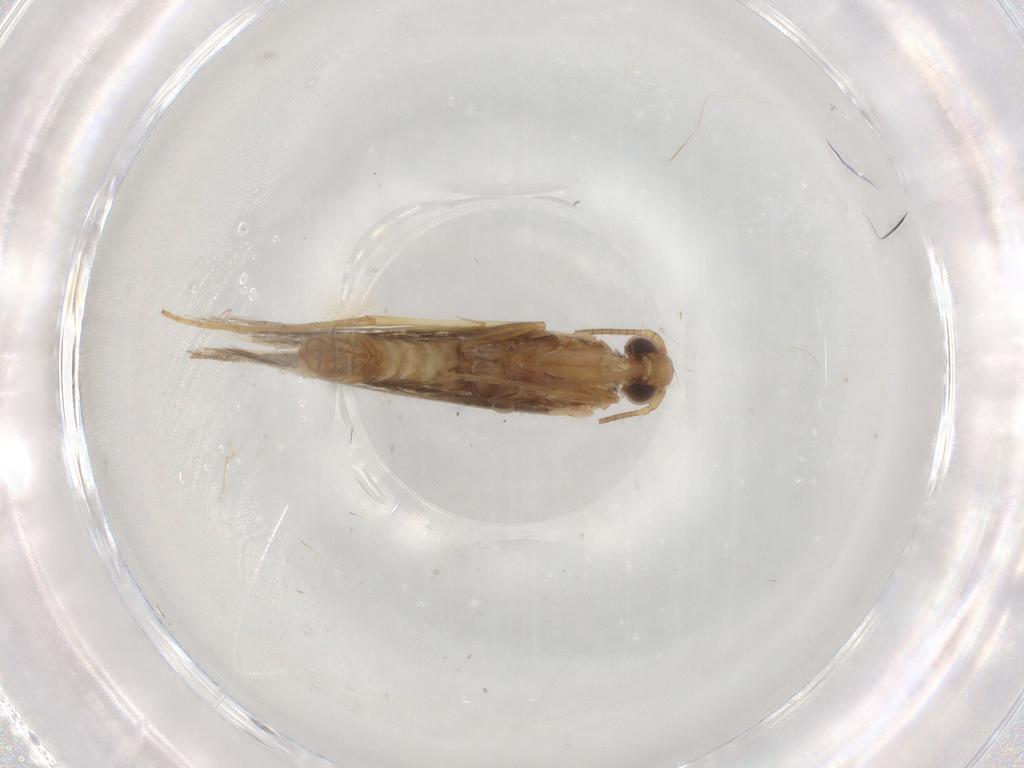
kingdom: Animalia
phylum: Arthropoda
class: Insecta
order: Lepidoptera
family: Gracillariidae
